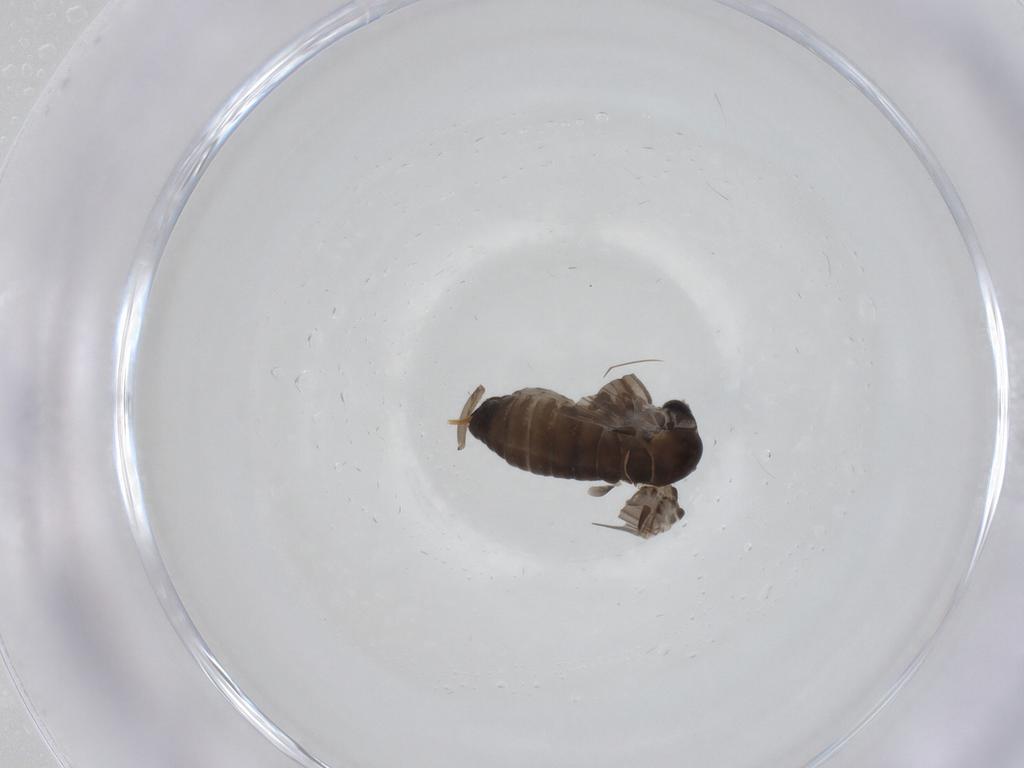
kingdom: Animalia
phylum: Arthropoda
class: Insecta
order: Diptera
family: Psychodidae
